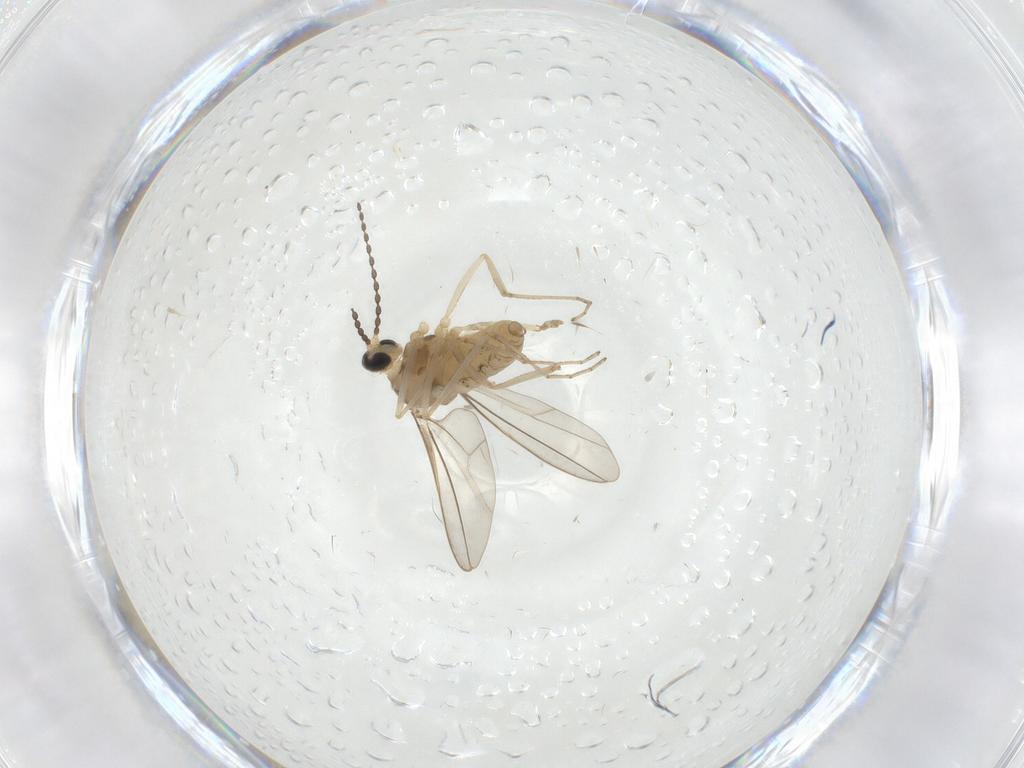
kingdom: Animalia
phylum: Arthropoda
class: Insecta
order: Diptera
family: Cecidomyiidae
